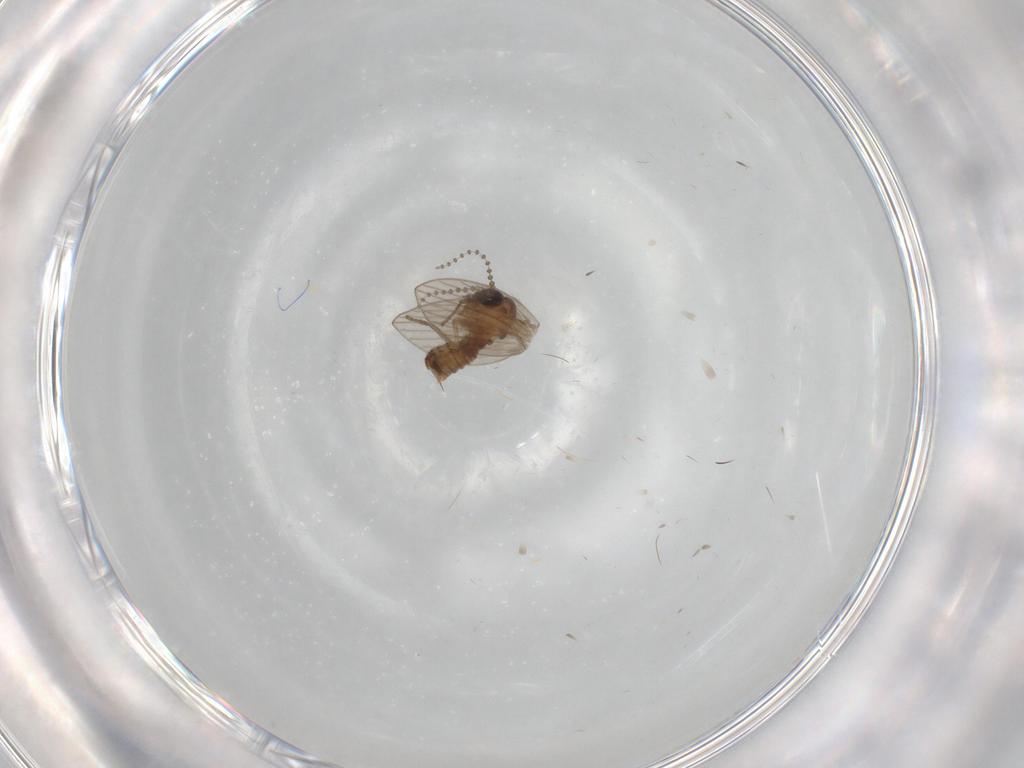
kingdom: Animalia
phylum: Arthropoda
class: Insecta
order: Diptera
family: Psychodidae
